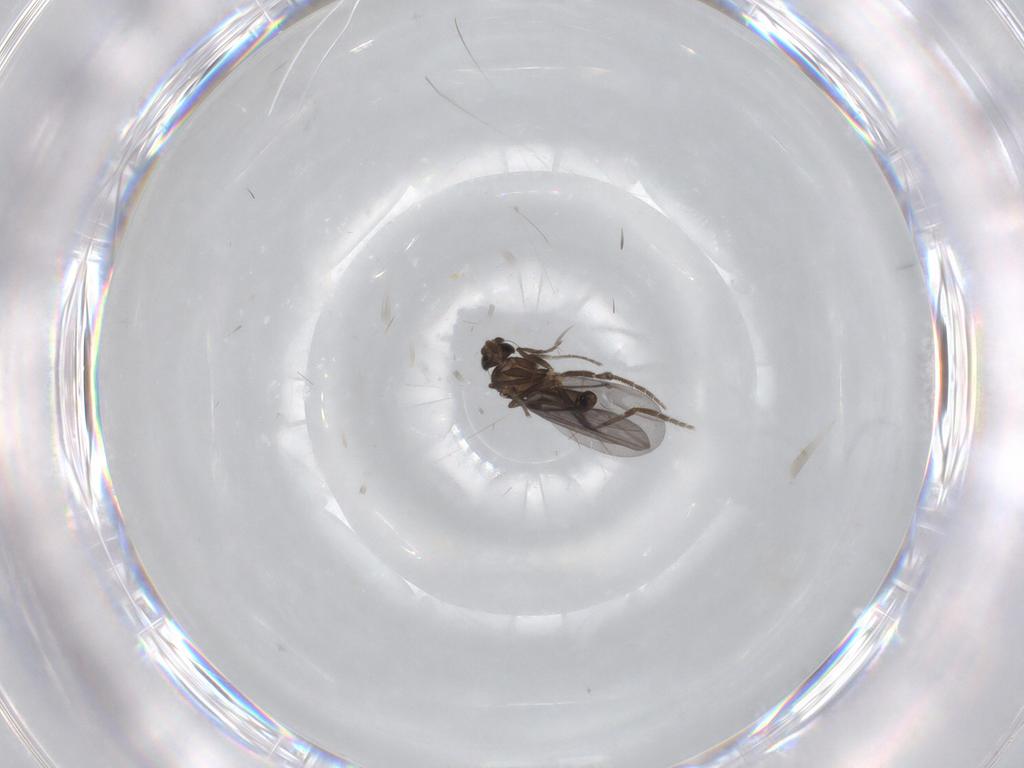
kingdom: Animalia
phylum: Arthropoda
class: Insecta
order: Diptera
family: Phoridae
